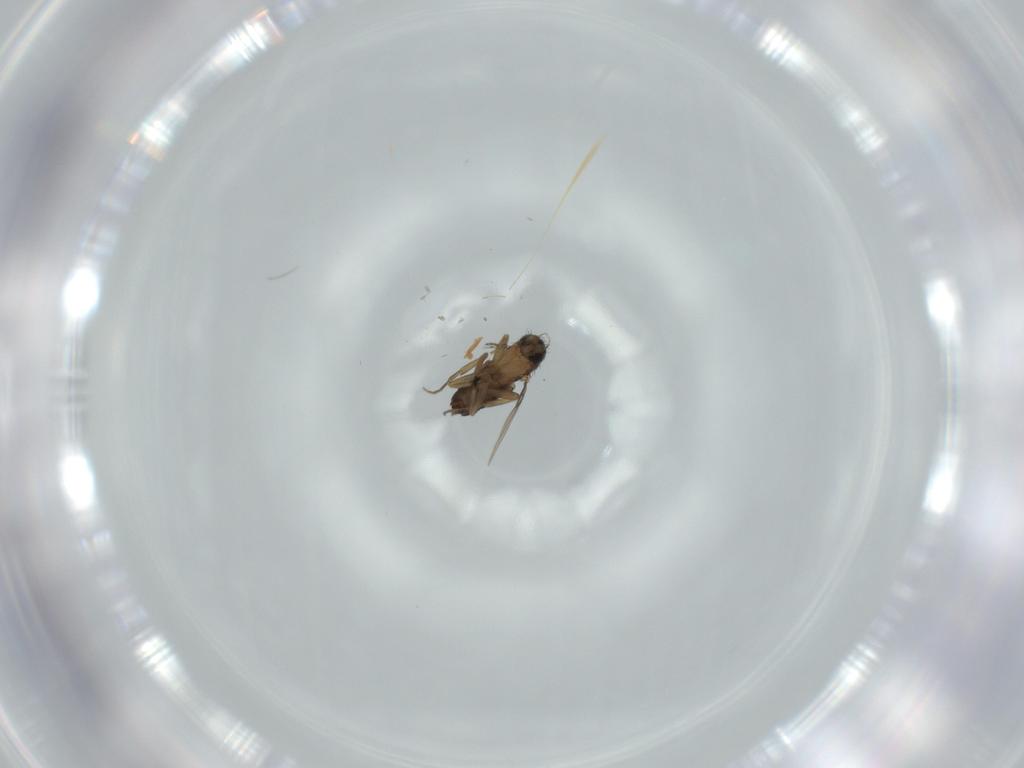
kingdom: Animalia
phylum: Arthropoda
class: Insecta
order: Diptera
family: Phoridae
